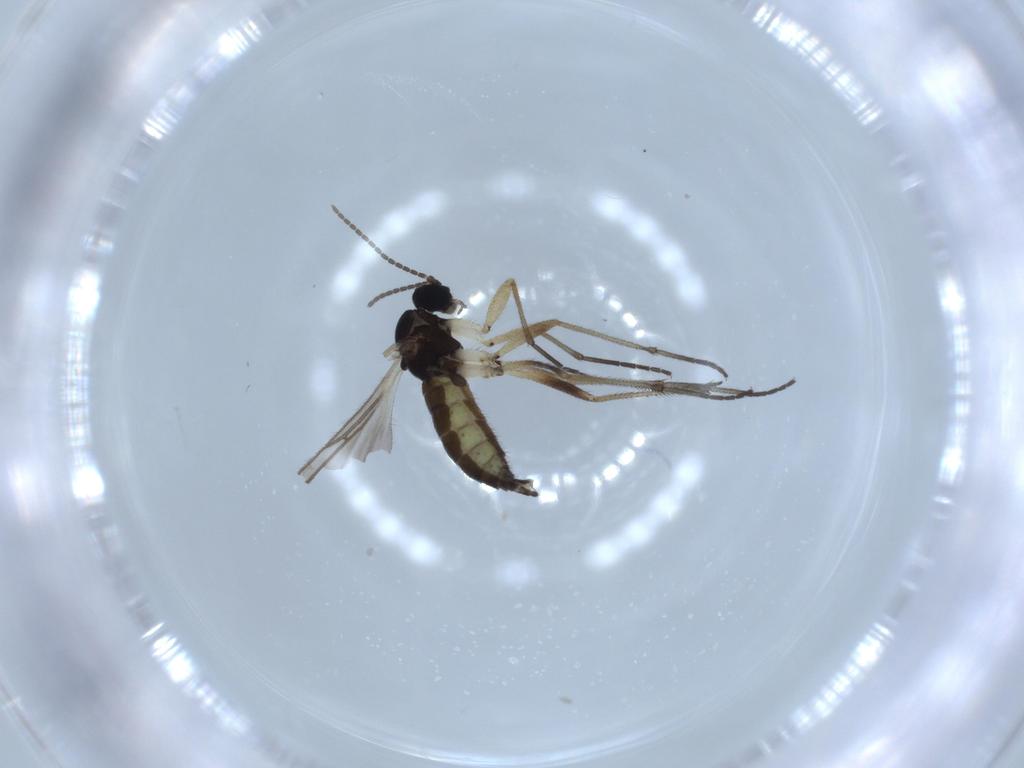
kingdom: Animalia
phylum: Arthropoda
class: Insecta
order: Diptera
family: Sciaridae
